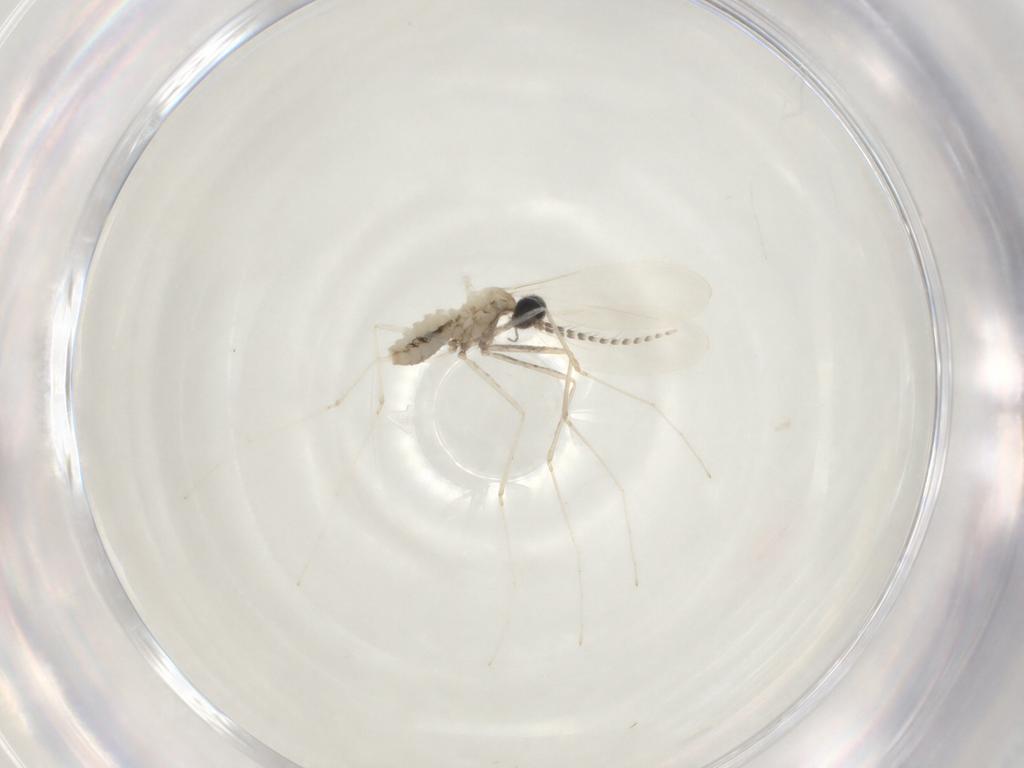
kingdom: Animalia
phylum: Arthropoda
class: Insecta
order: Diptera
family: Cecidomyiidae
